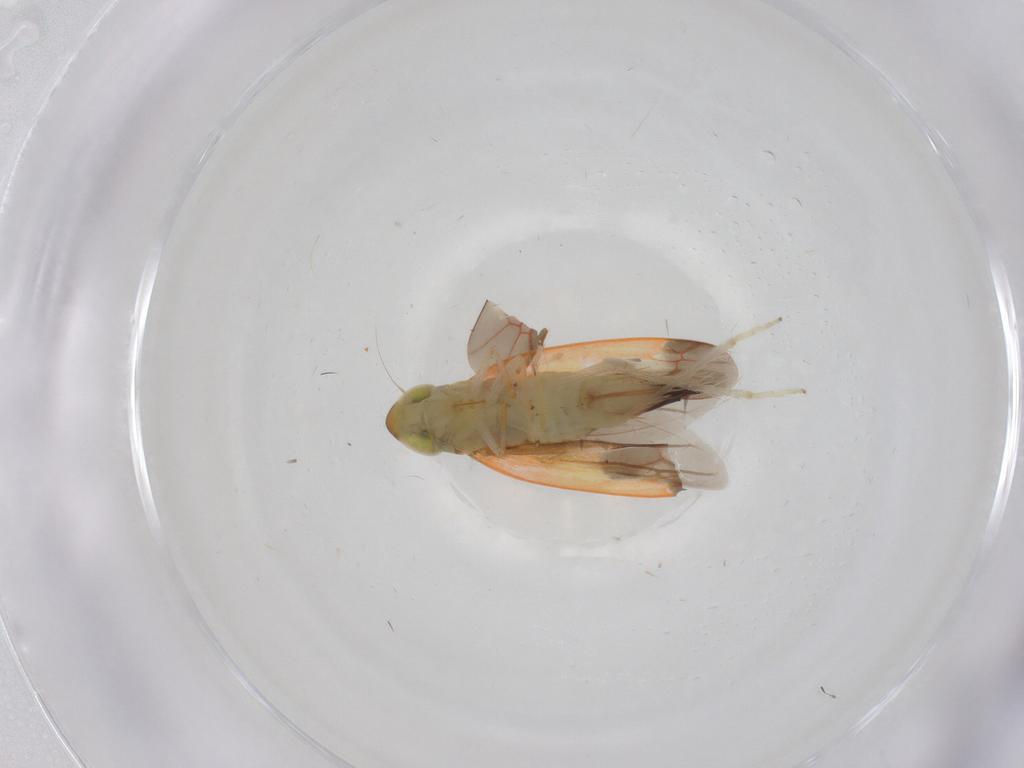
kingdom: Animalia
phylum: Arthropoda
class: Insecta
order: Hemiptera
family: Cicadellidae
